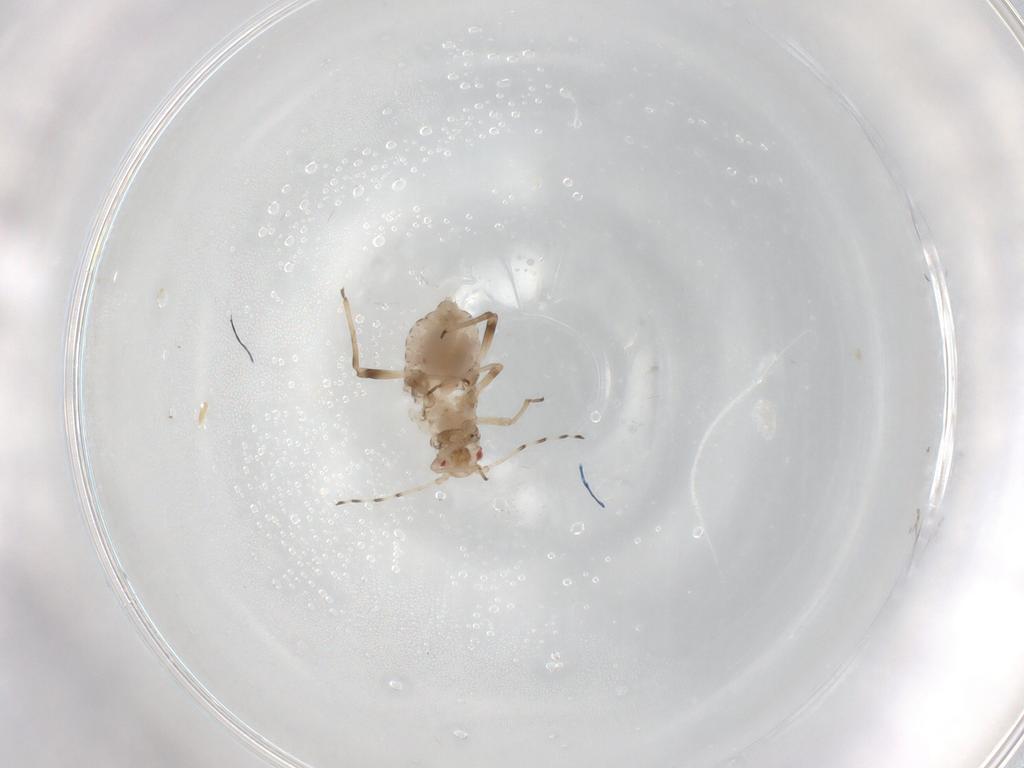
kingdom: Animalia
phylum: Arthropoda
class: Insecta
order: Hemiptera
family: Aphididae
